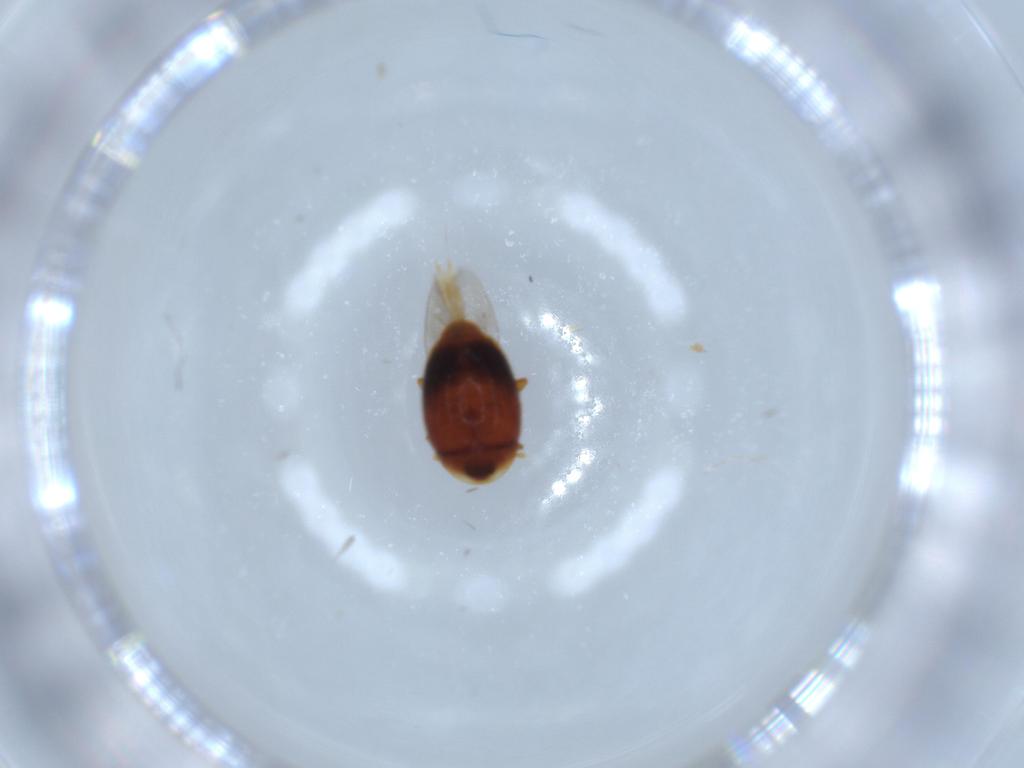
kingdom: Animalia
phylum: Arthropoda
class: Insecta
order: Coleoptera
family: Corylophidae
